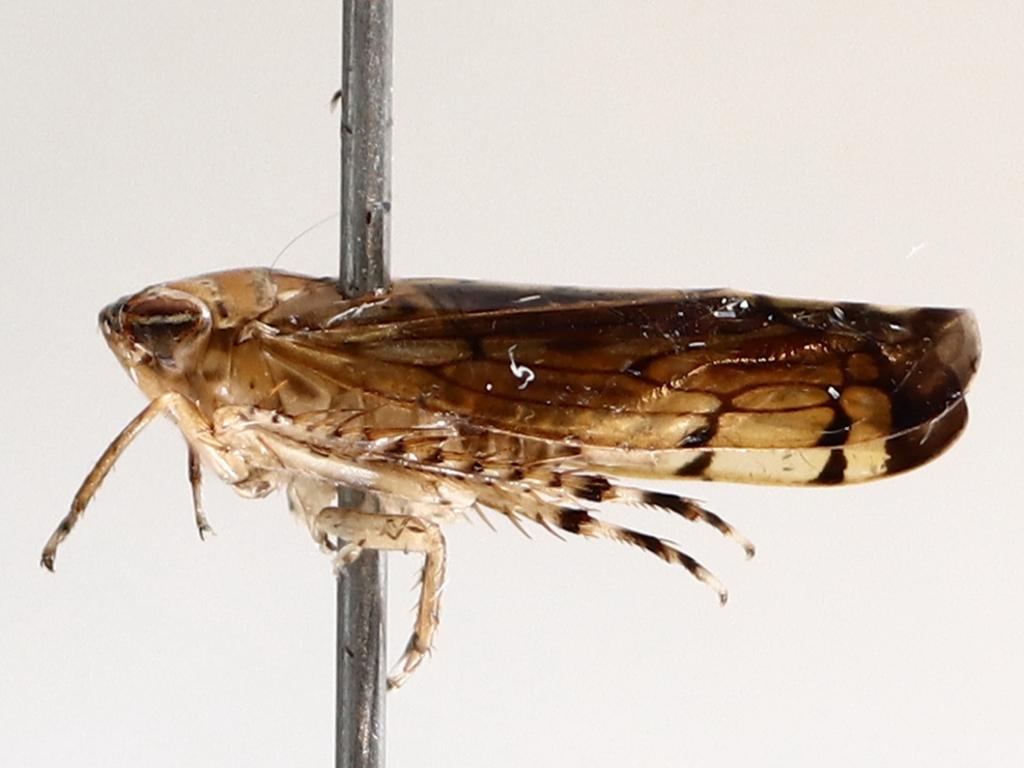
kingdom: Animalia
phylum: Arthropoda
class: Insecta
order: Diptera
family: Phoridae
